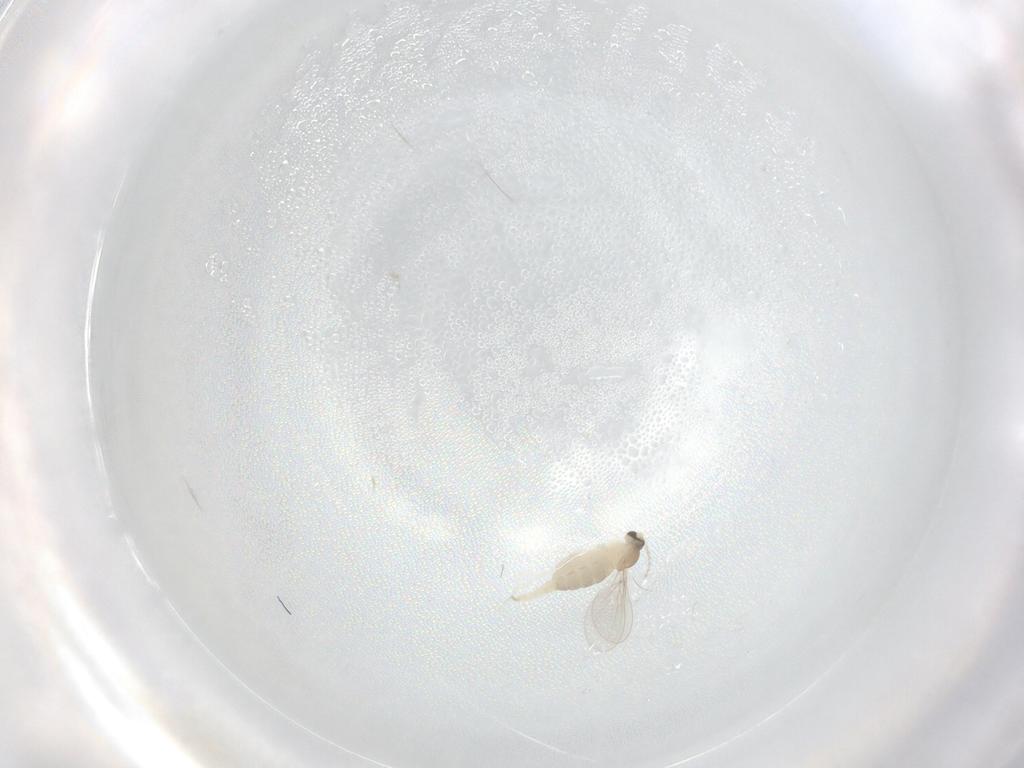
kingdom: Animalia
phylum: Arthropoda
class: Insecta
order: Diptera
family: Cecidomyiidae
